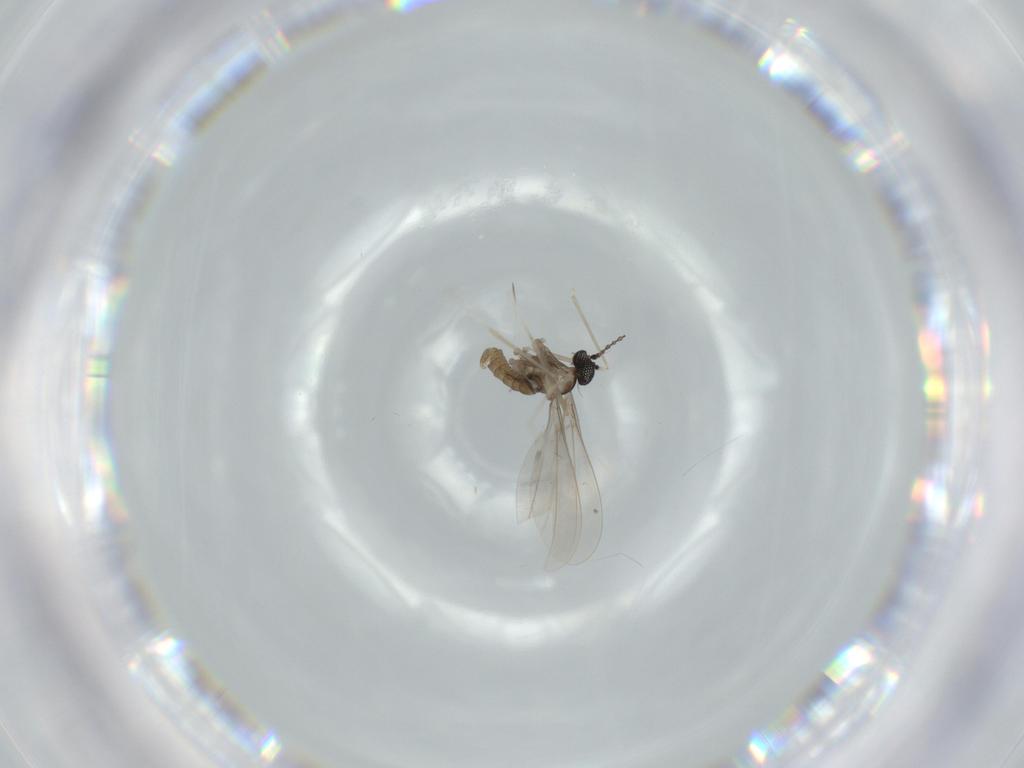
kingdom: Animalia
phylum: Arthropoda
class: Insecta
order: Diptera
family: Cecidomyiidae
